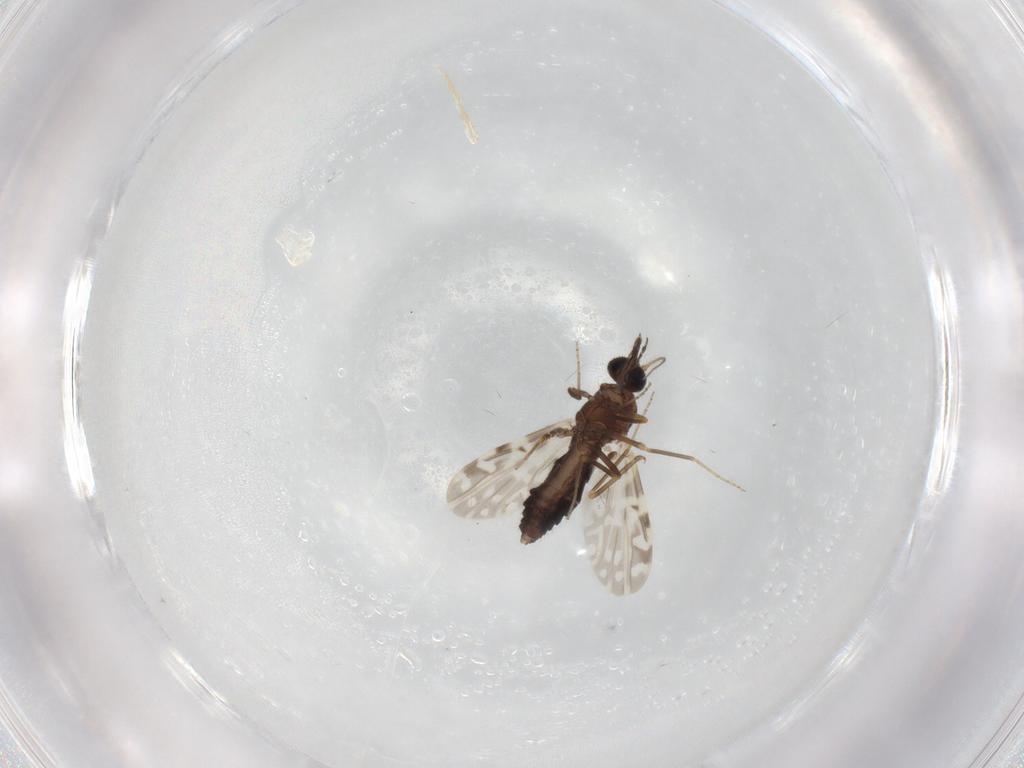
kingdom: Animalia
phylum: Arthropoda
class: Insecta
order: Diptera
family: Ceratopogonidae
